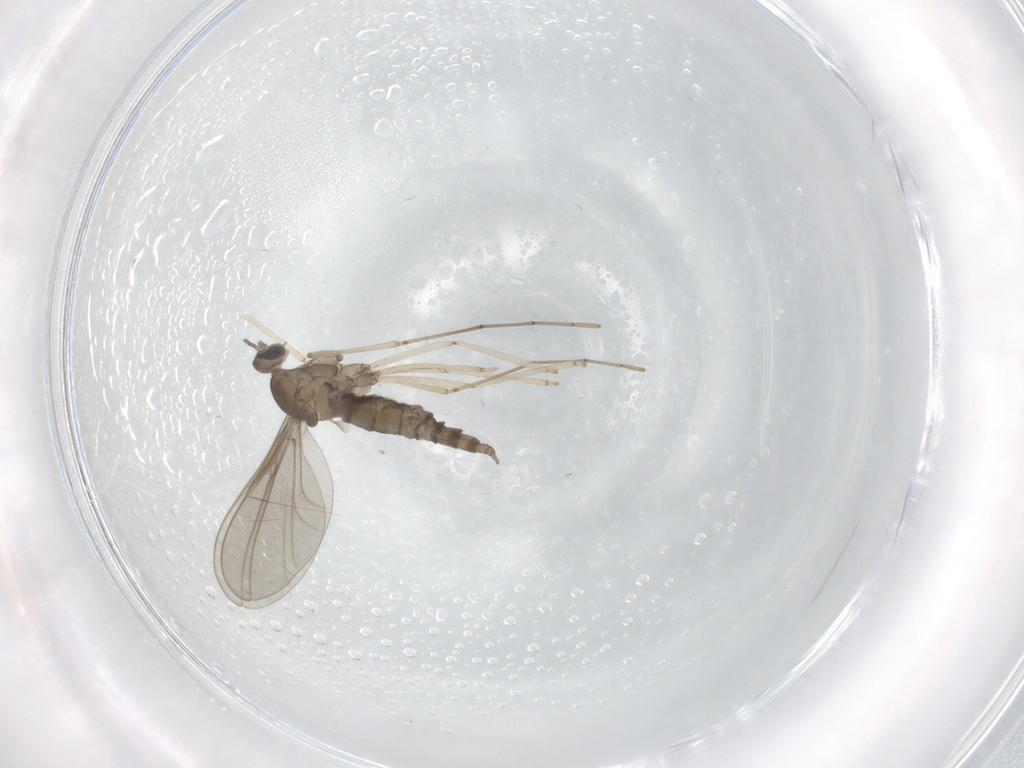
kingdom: Animalia
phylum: Arthropoda
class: Insecta
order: Diptera
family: Cecidomyiidae
